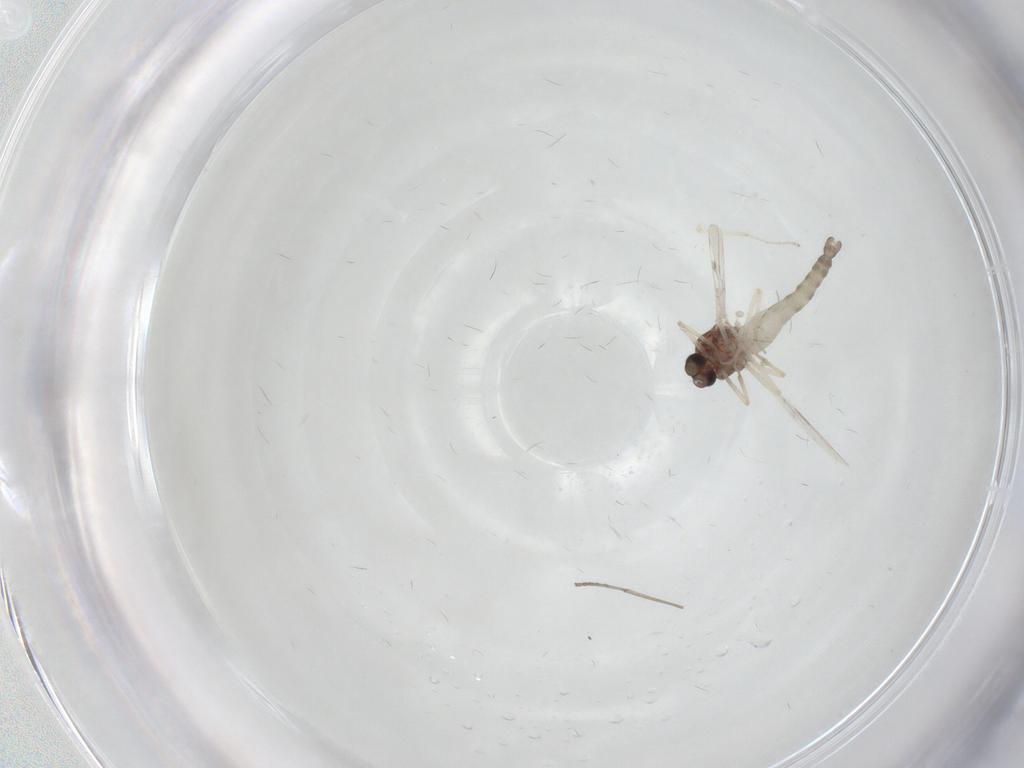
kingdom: Animalia
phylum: Arthropoda
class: Insecta
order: Diptera
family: Ceratopogonidae
